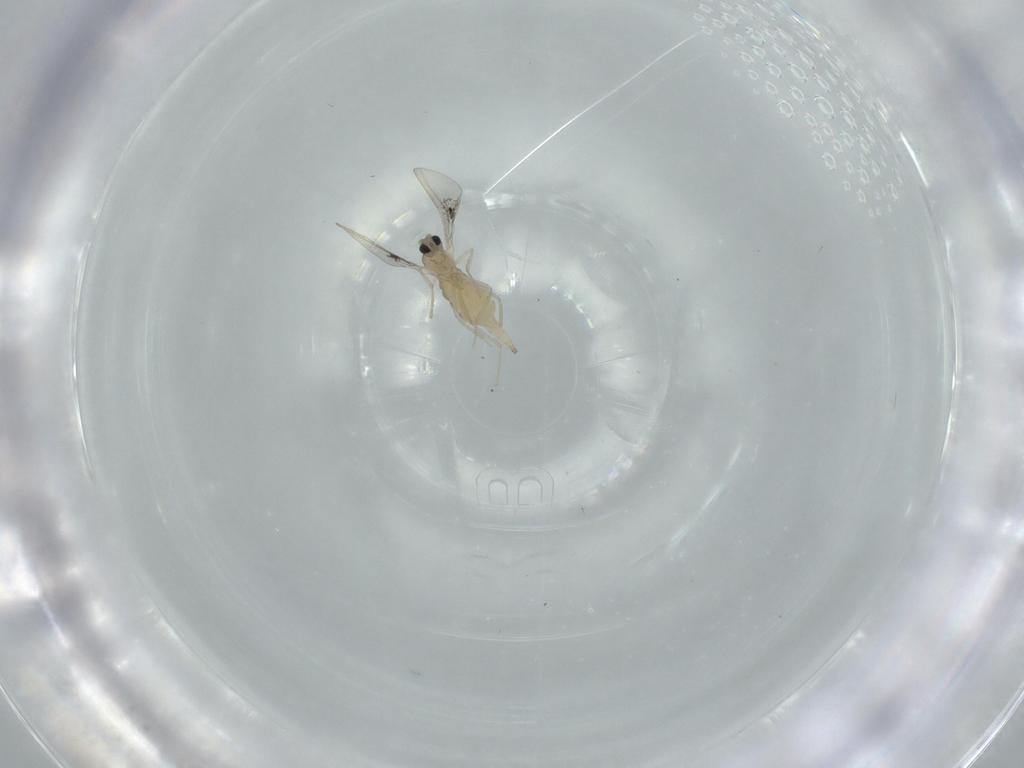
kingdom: Animalia
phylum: Arthropoda
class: Insecta
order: Diptera
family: Cecidomyiidae
